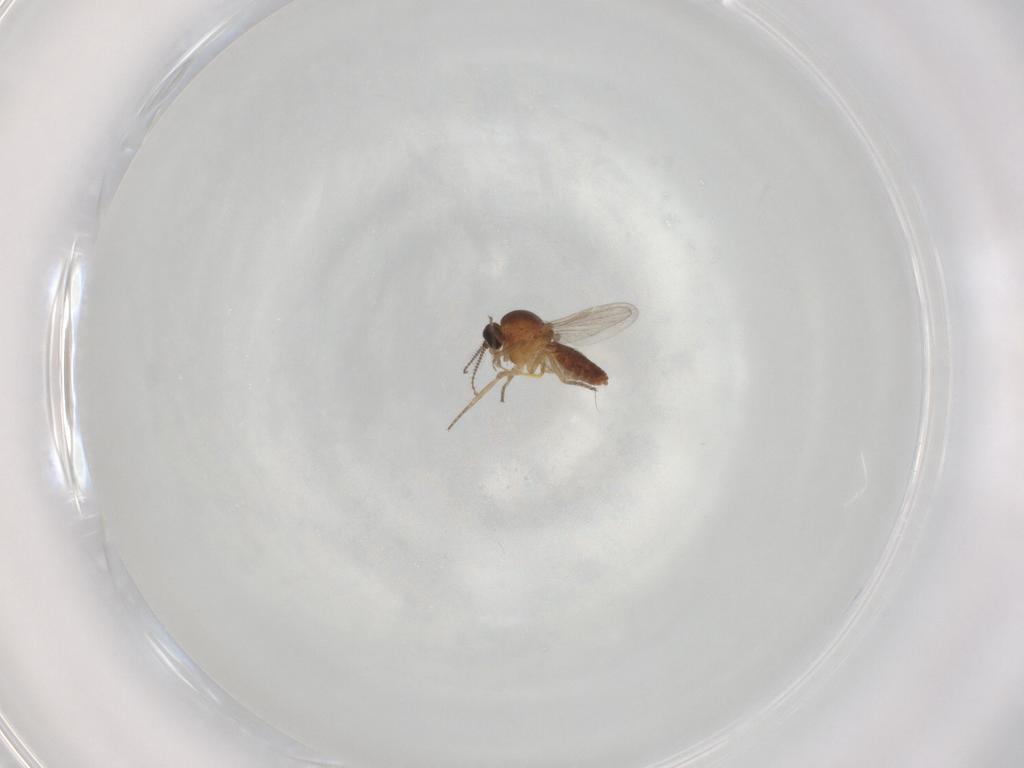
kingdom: Animalia
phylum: Arthropoda
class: Insecta
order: Diptera
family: Ceratopogonidae
